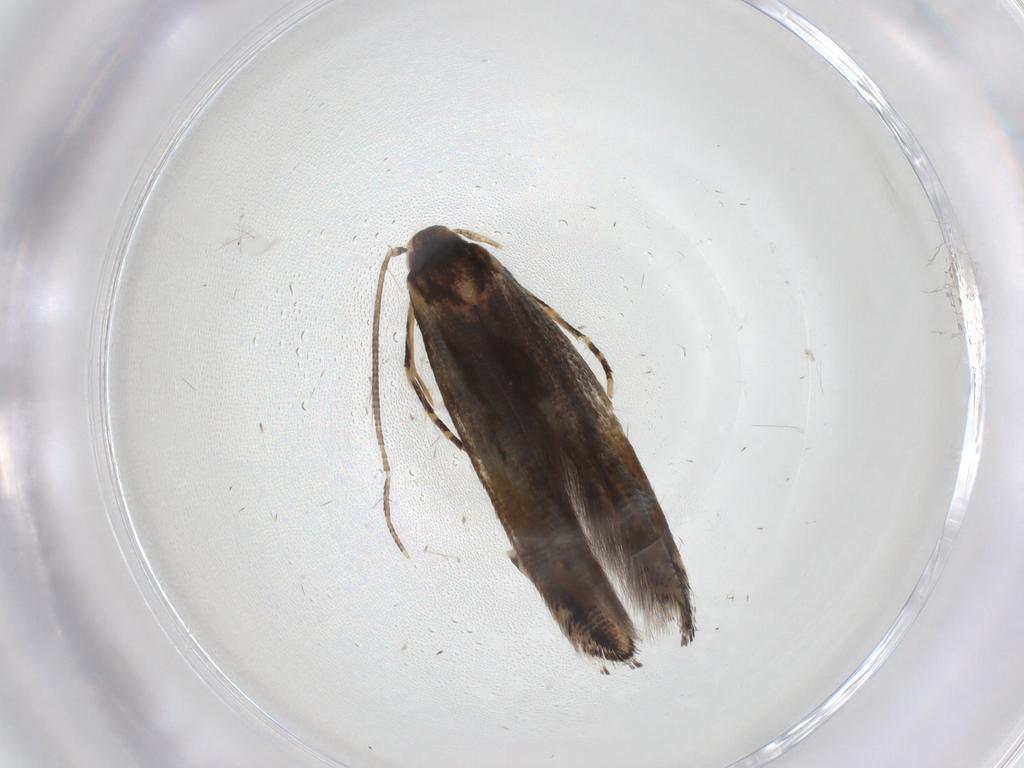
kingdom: Animalia
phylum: Arthropoda
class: Insecta
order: Lepidoptera
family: Momphidae
